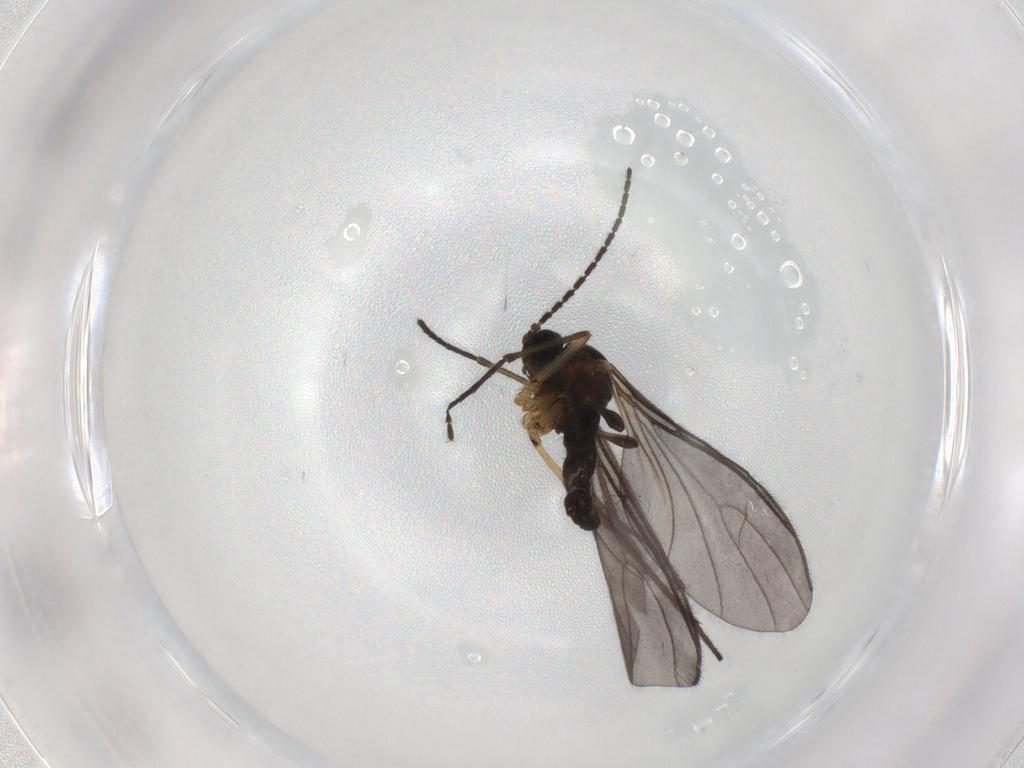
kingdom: Animalia
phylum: Arthropoda
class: Insecta
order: Diptera
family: Sciaridae
